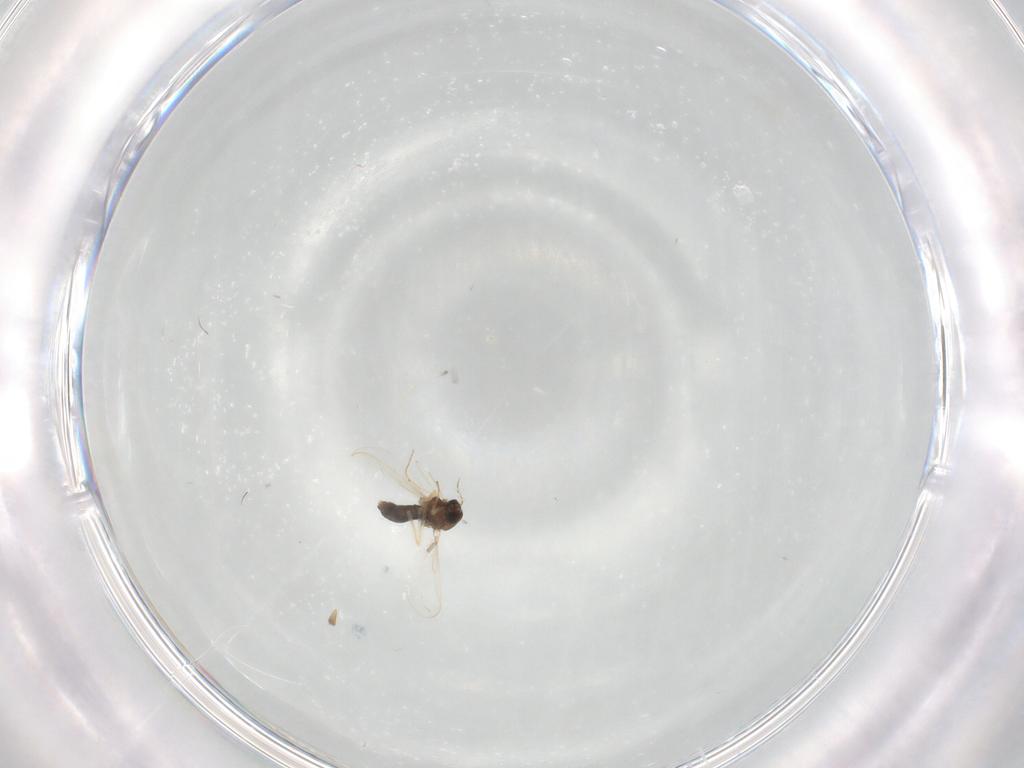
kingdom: Animalia
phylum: Arthropoda
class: Insecta
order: Diptera
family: Chironomidae
